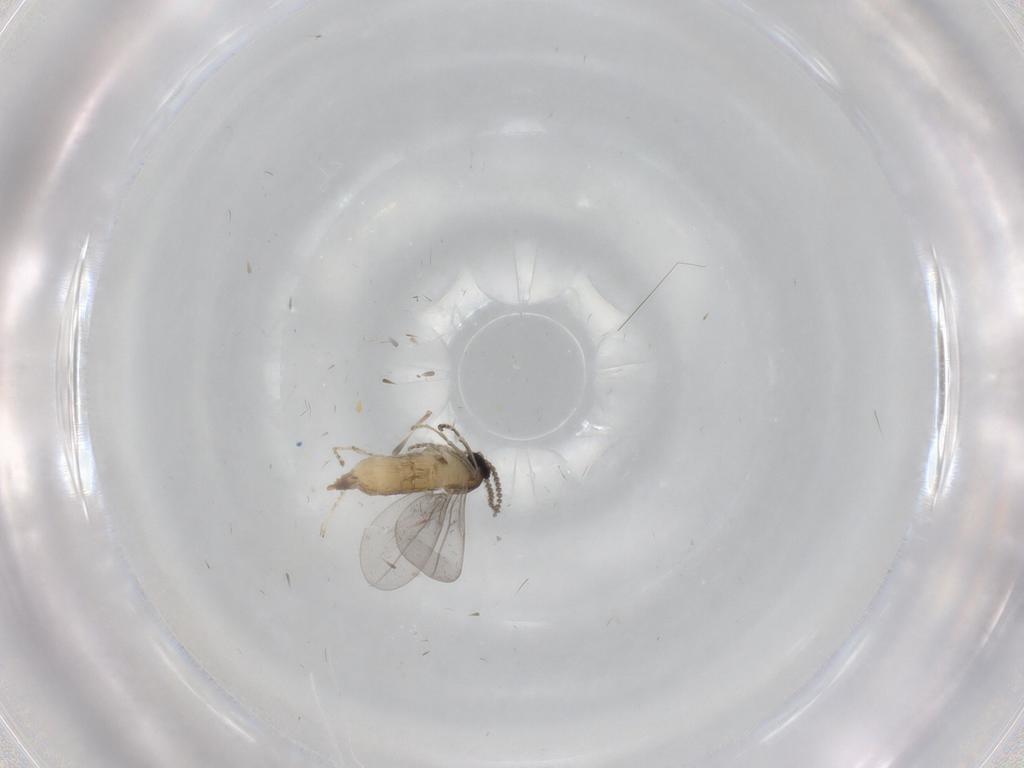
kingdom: Animalia
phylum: Arthropoda
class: Insecta
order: Diptera
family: Cecidomyiidae
